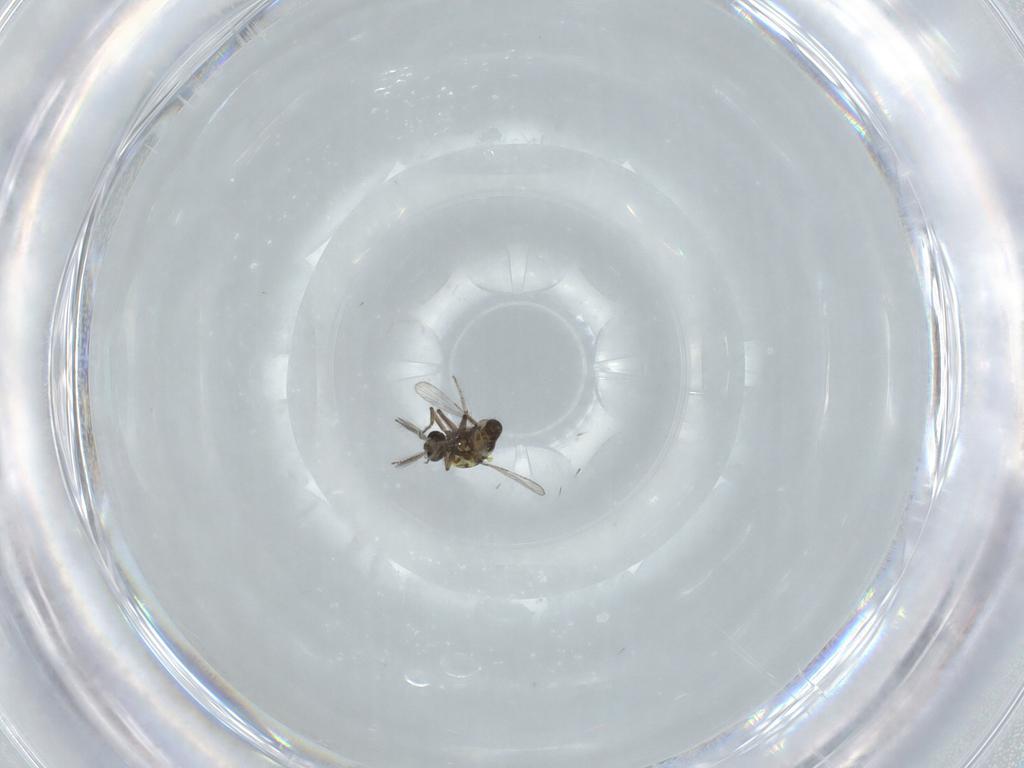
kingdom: Animalia
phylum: Arthropoda
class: Insecta
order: Diptera
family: Ceratopogonidae
